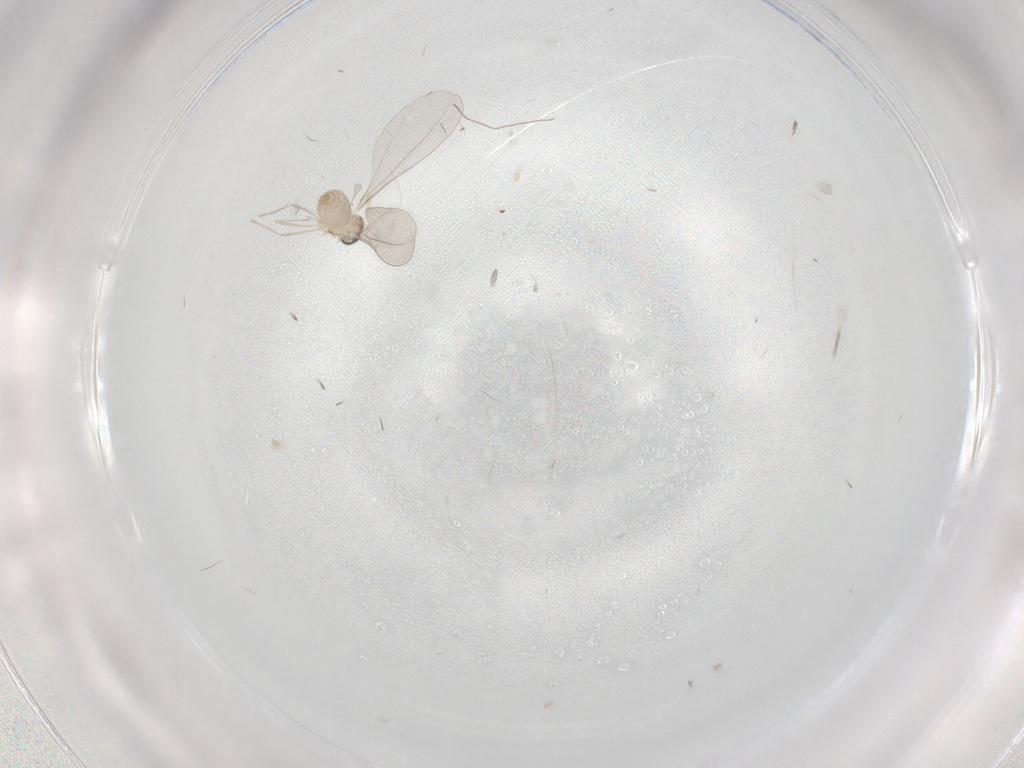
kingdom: Animalia
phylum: Arthropoda
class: Insecta
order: Diptera
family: Cecidomyiidae
